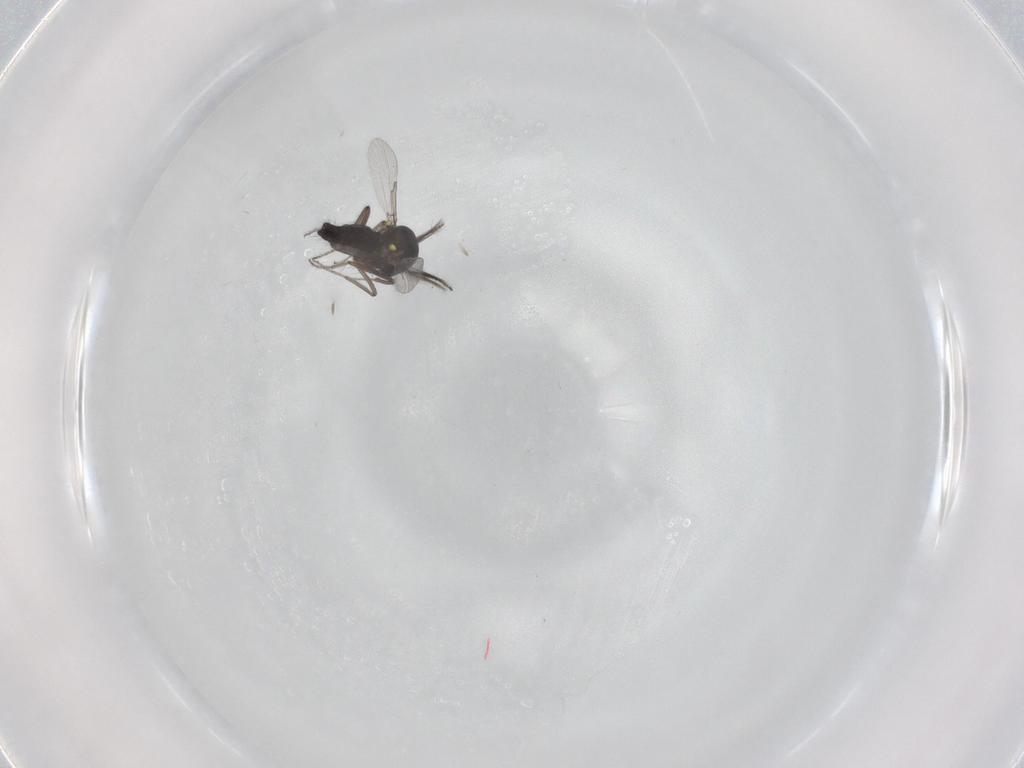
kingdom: Animalia
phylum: Arthropoda
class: Insecta
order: Diptera
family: Ceratopogonidae
